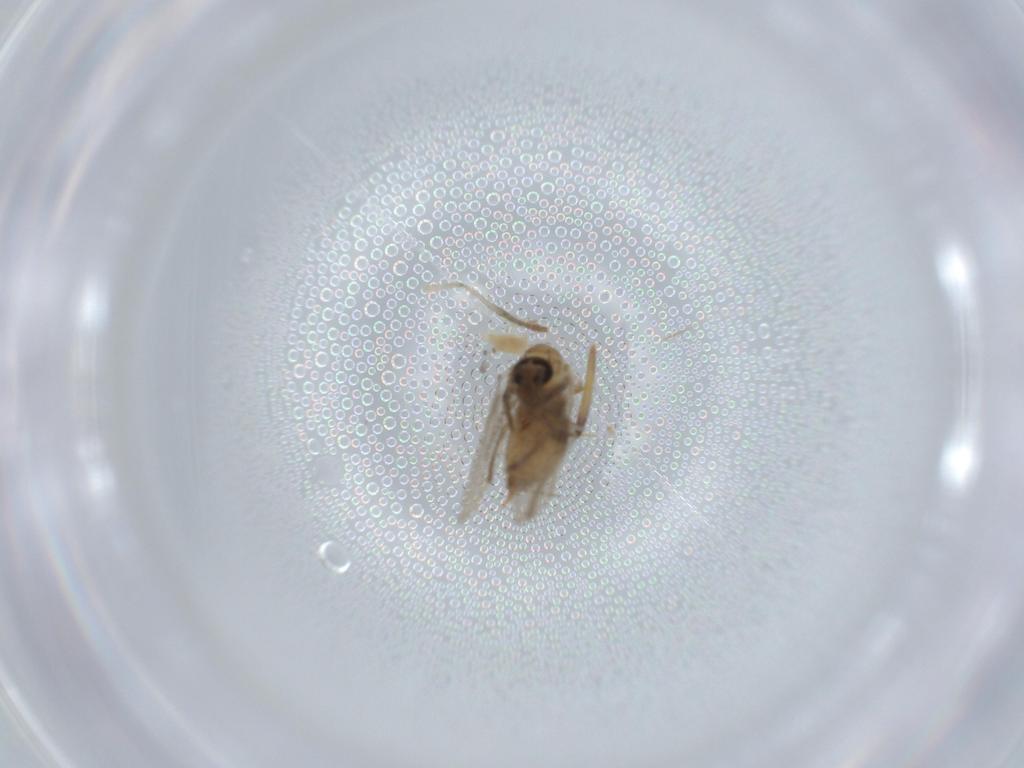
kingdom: Animalia
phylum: Arthropoda
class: Insecta
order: Diptera
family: Psychodidae
